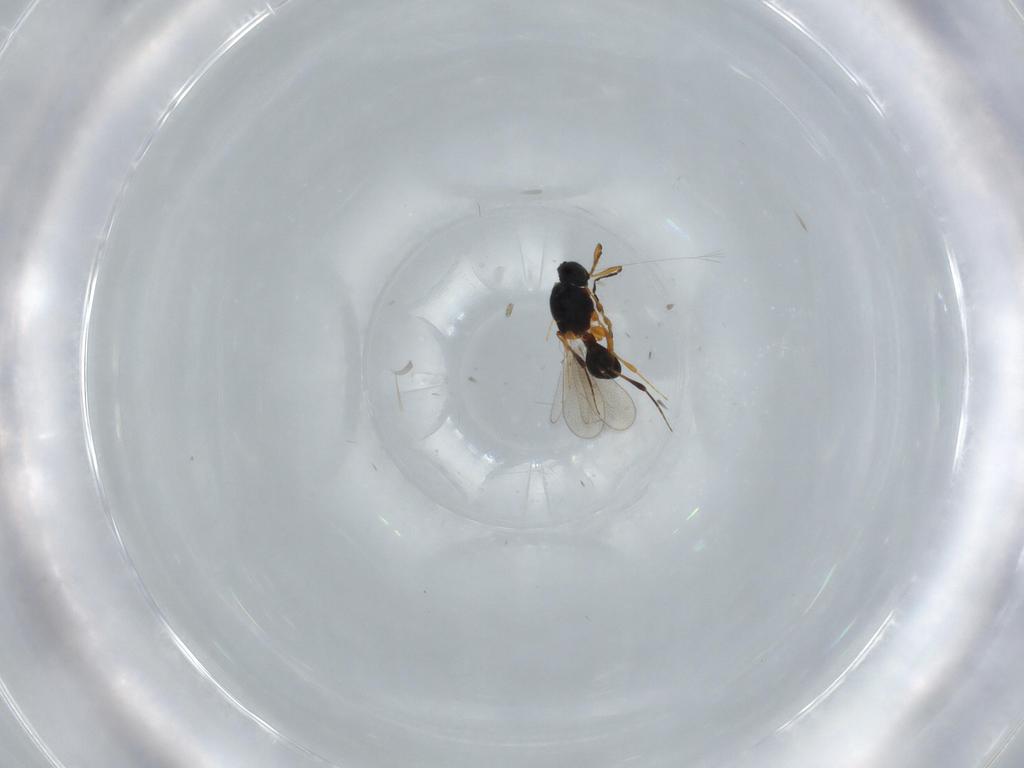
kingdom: Animalia
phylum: Arthropoda
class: Insecta
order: Hymenoptera
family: Platygastridae
